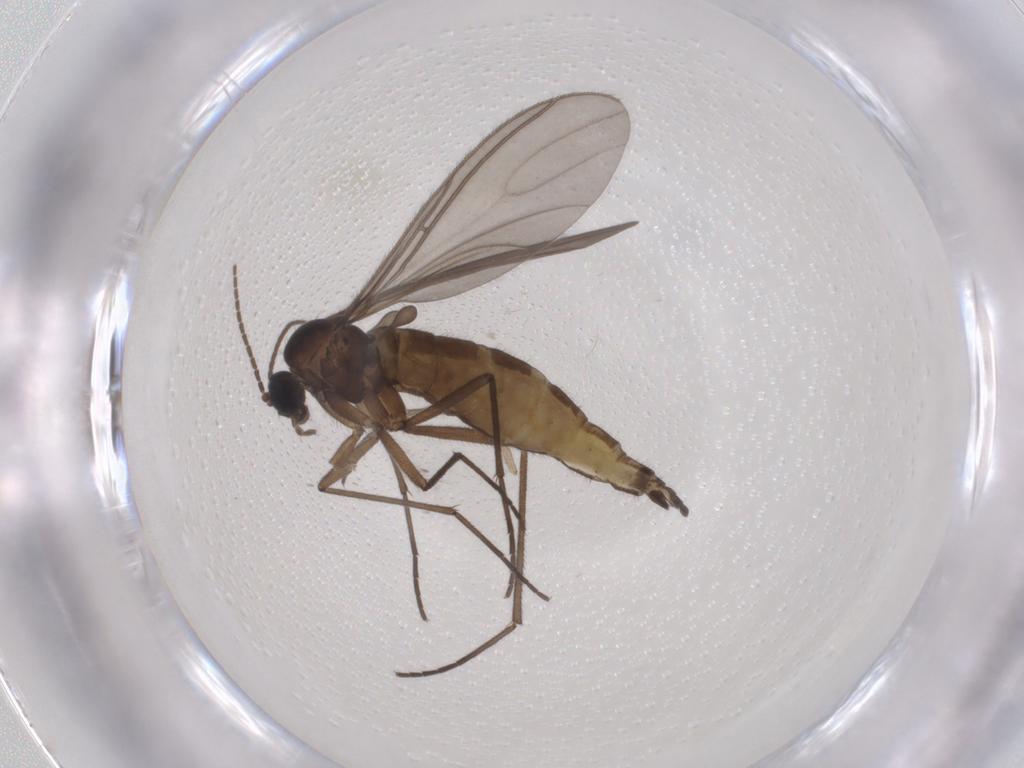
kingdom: Animalia
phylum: Arthropoda
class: Insecta
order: Diptera
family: Sciaridae
